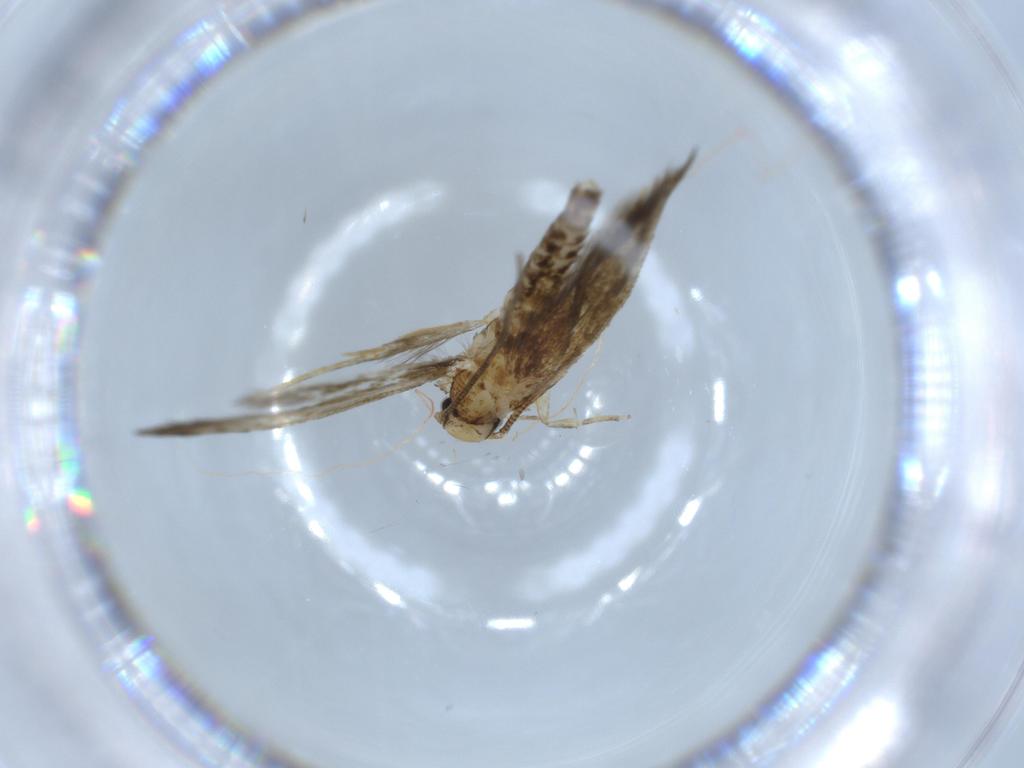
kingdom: Animalia
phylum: Arthropoda
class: Insecta
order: Lepidoptera
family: Tineidae
